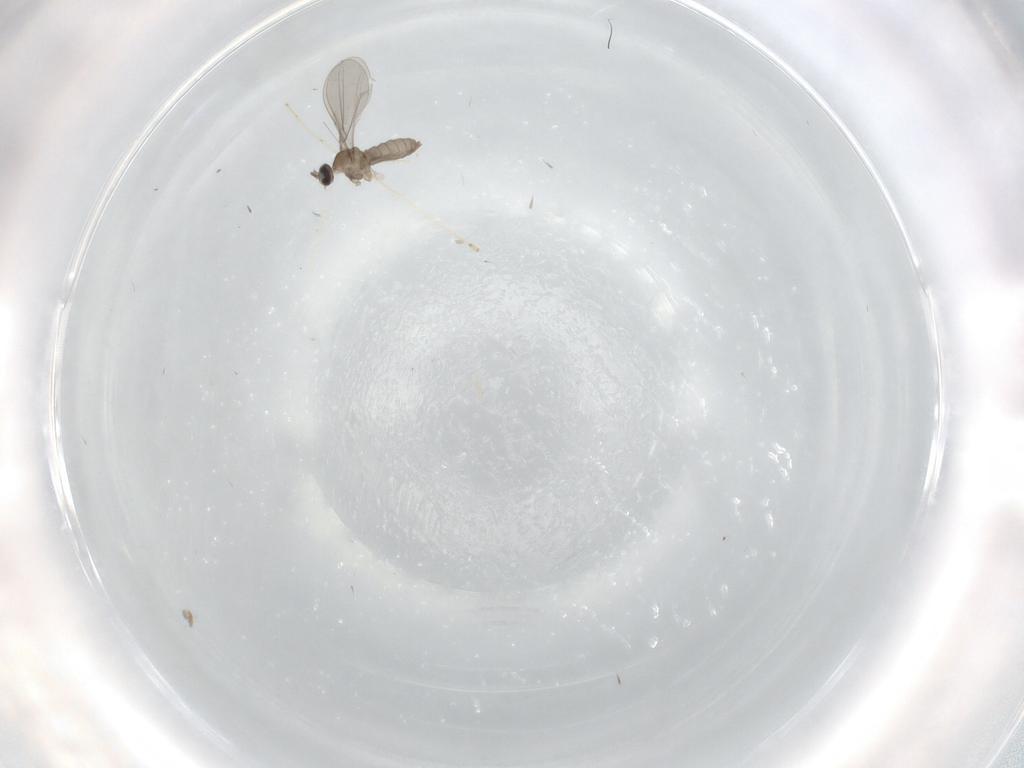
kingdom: Animalia
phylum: Arthropoda
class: Insecta
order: Diptera
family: Cecidomyiidae
